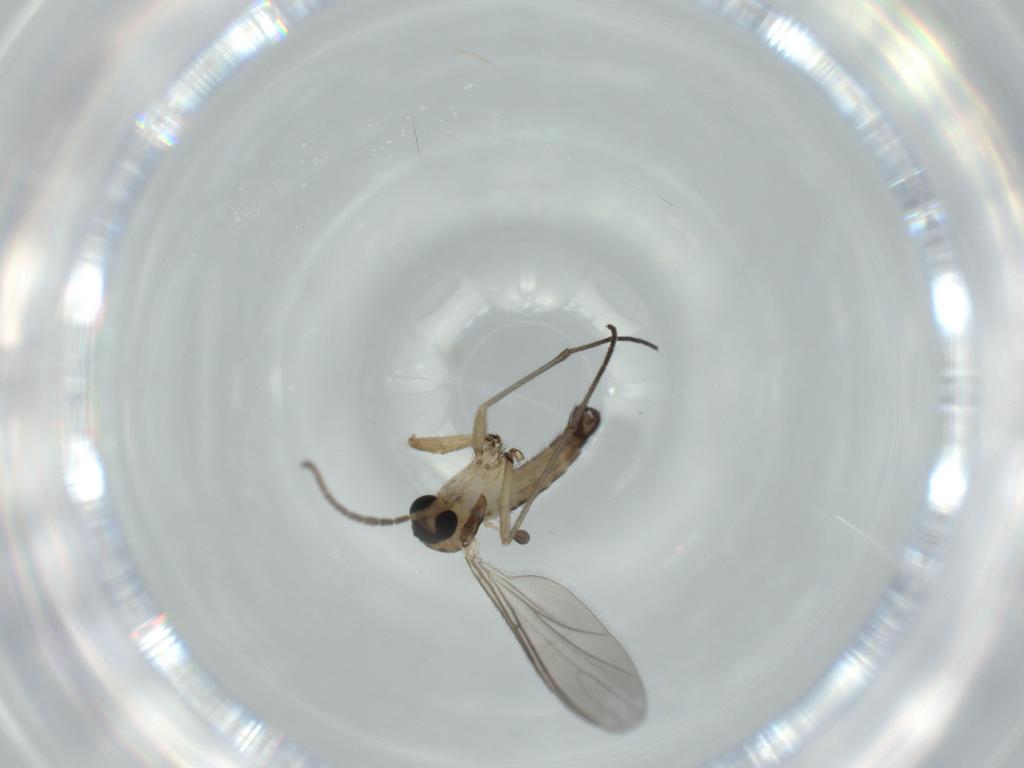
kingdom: Animalia
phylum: Arthropoda
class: Insecta
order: Diptera
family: Sciaridae
